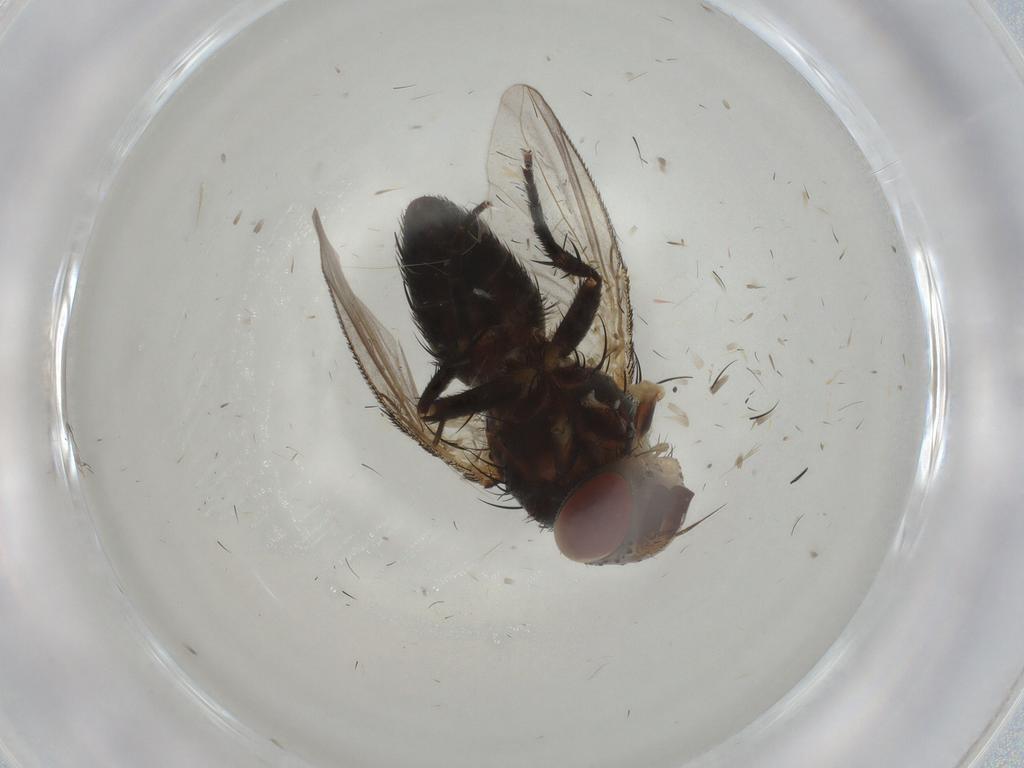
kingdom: Animalia
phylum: Arthropoda
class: Insecta
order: Diptera
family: Tachinidae
